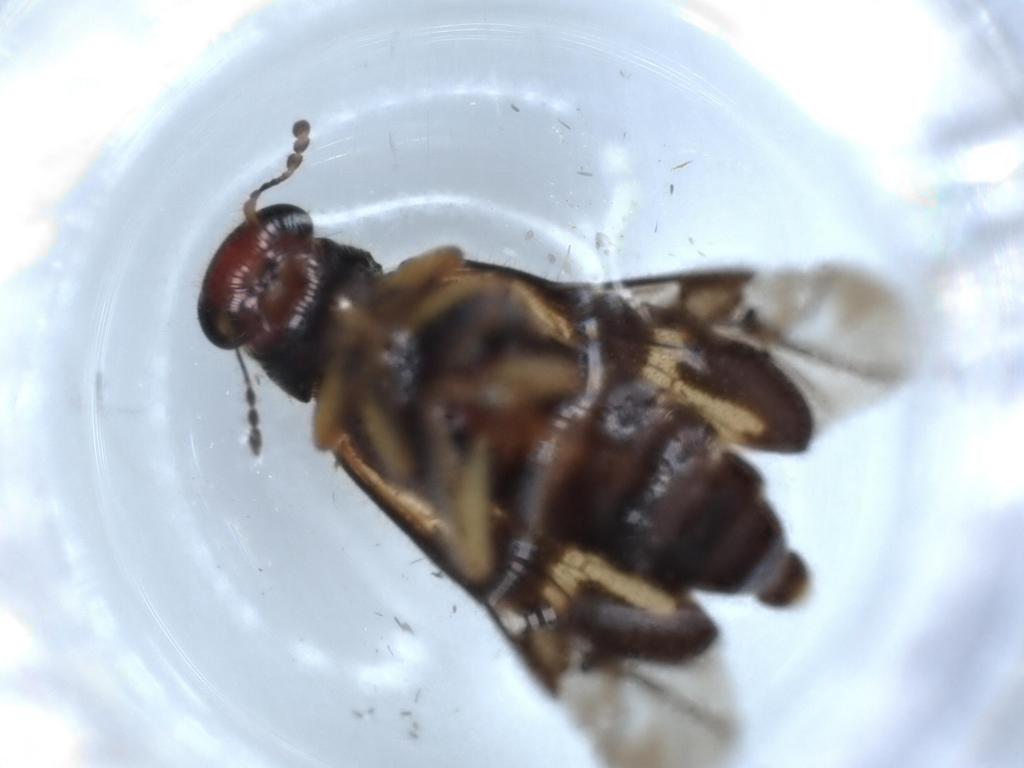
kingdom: Animalia
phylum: Arthropoda
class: Insecta
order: Coleoptera
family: Cleridae
